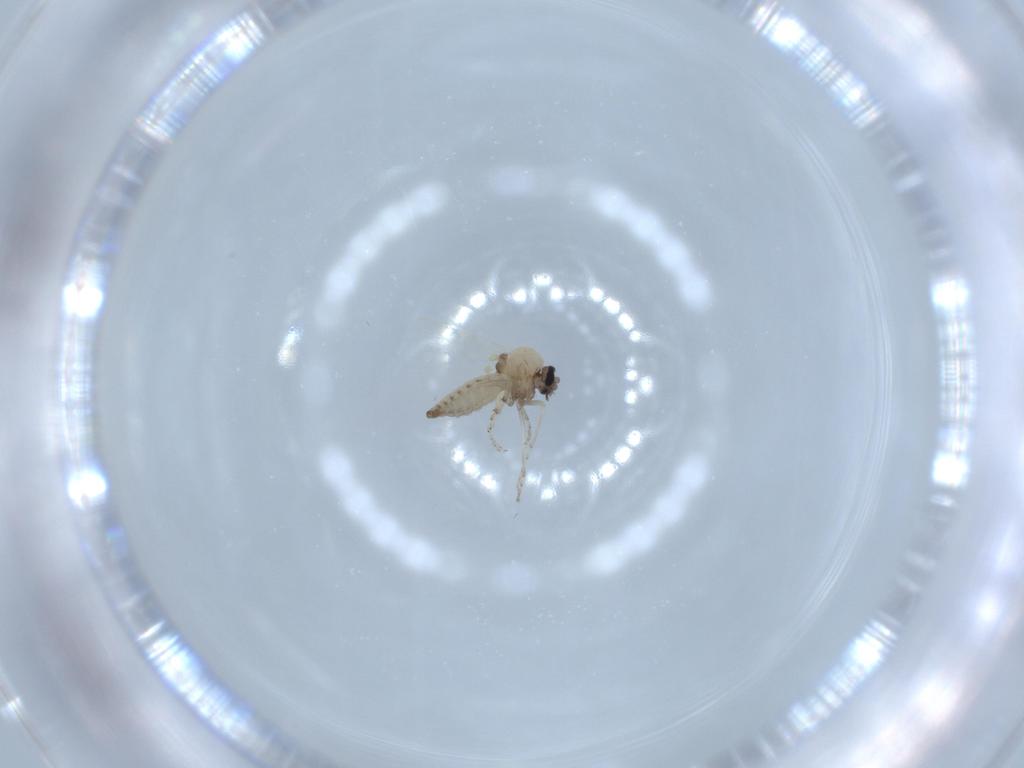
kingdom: Animalia
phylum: Arthropoda
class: Insecta
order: Diptera
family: Ceratopogonidae
